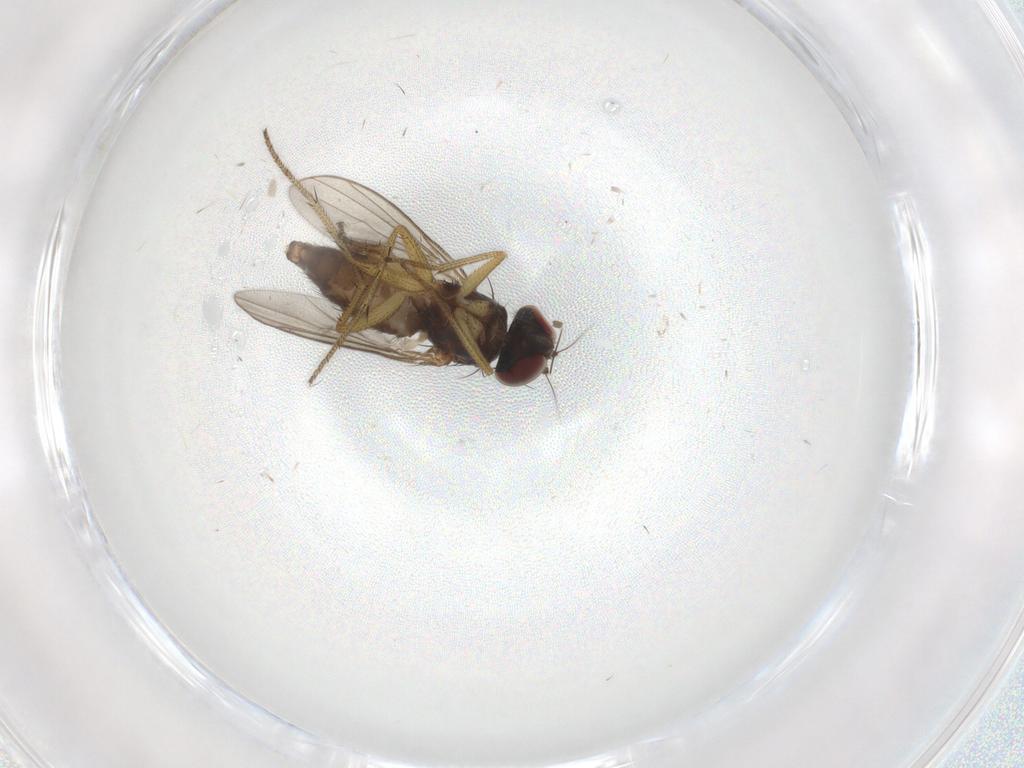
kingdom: Animalia
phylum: Arthropoda
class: Insecta
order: Diptera
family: Dolichopodidae
